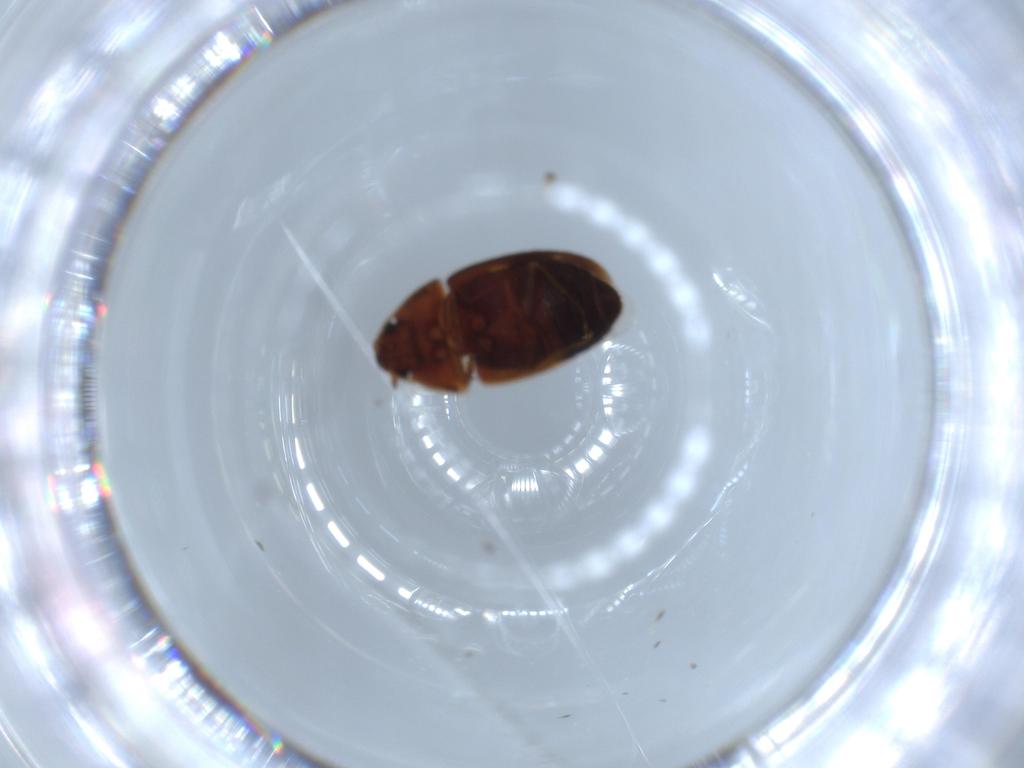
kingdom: Animalia
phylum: Arthropoda
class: Insecta
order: Coleoptera
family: Mycetophagidae
